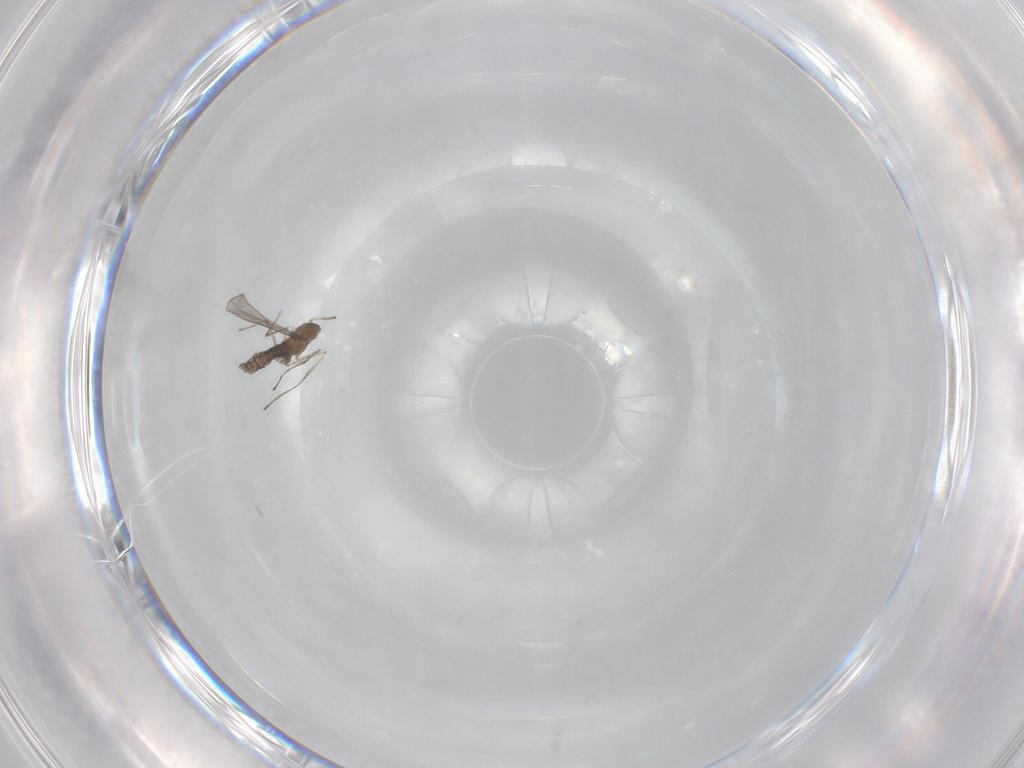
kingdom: Animalia
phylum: Arthropoda
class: Insecta
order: Diptera
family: Cecidomyiidae
